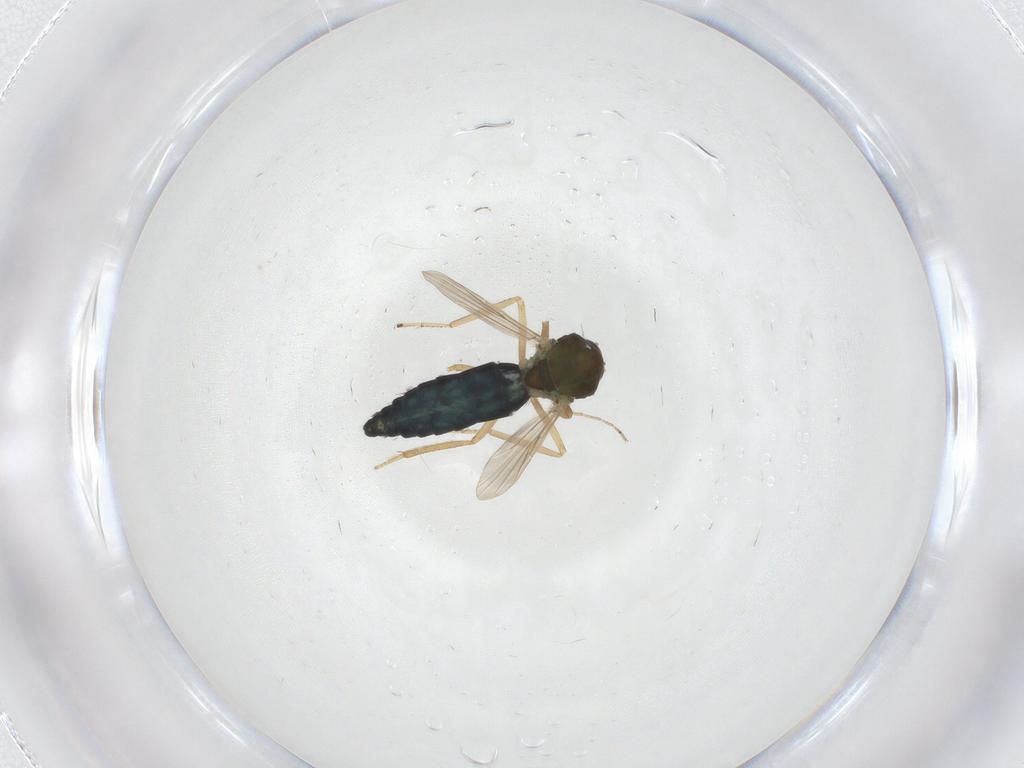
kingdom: Animalia
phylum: Arthropoda
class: Insecta
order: Diptera
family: Ceratopogonidae
